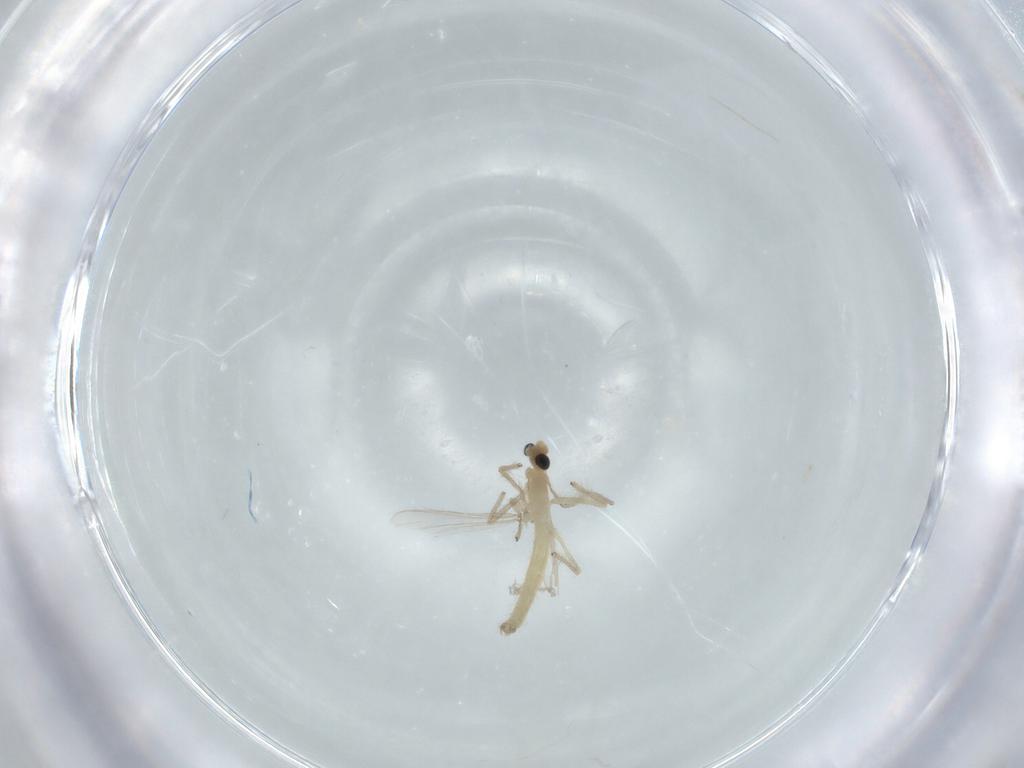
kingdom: Animalia
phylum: Arthropoda
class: Insecta
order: Diptera
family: Chironomidae
